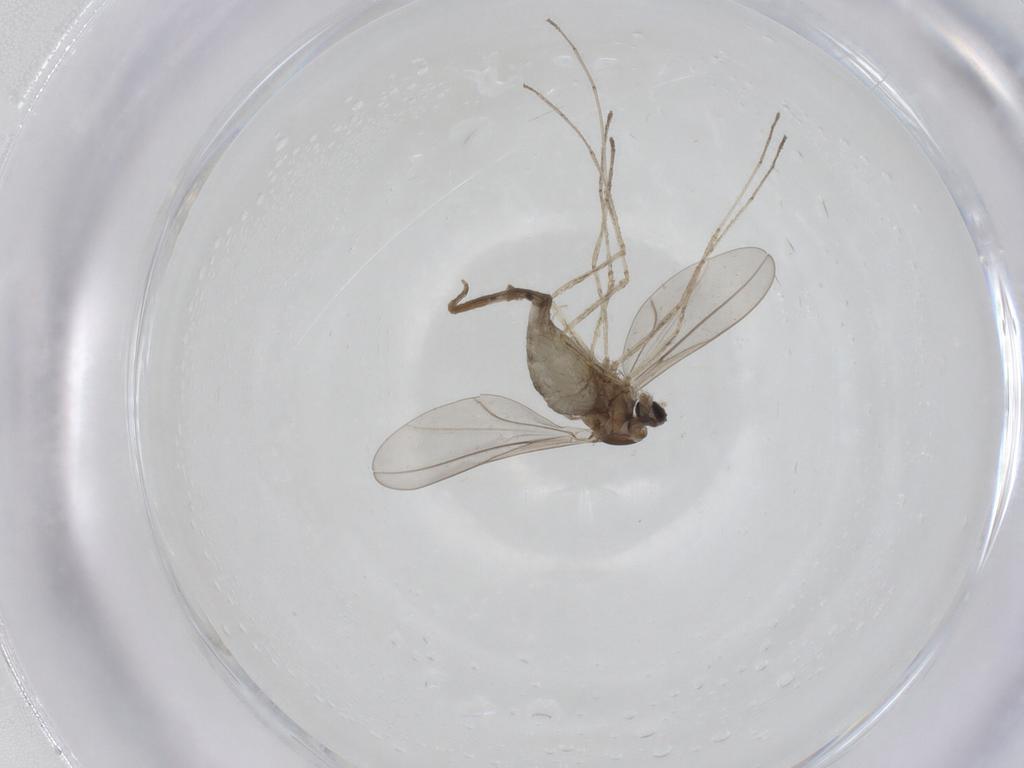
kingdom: Animalia
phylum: Arthropoda
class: Insecta
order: Diptera
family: Cecidomyiidae
